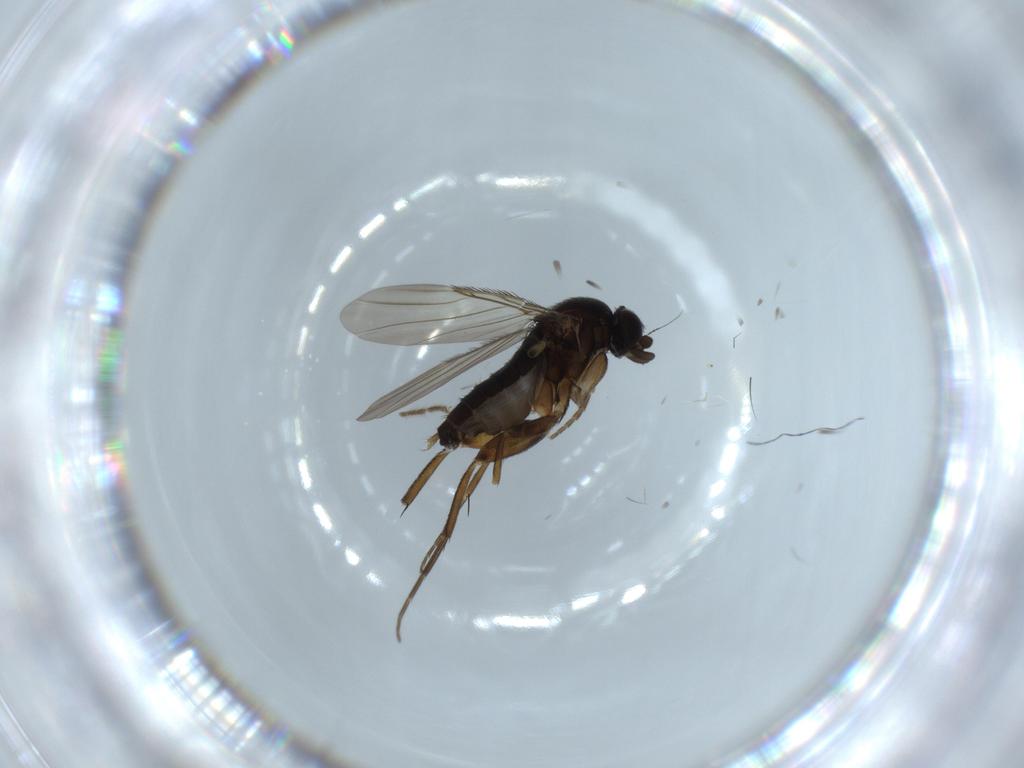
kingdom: Animalia
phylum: Arthropoda
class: Insecta
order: Diptera
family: Phoridae
